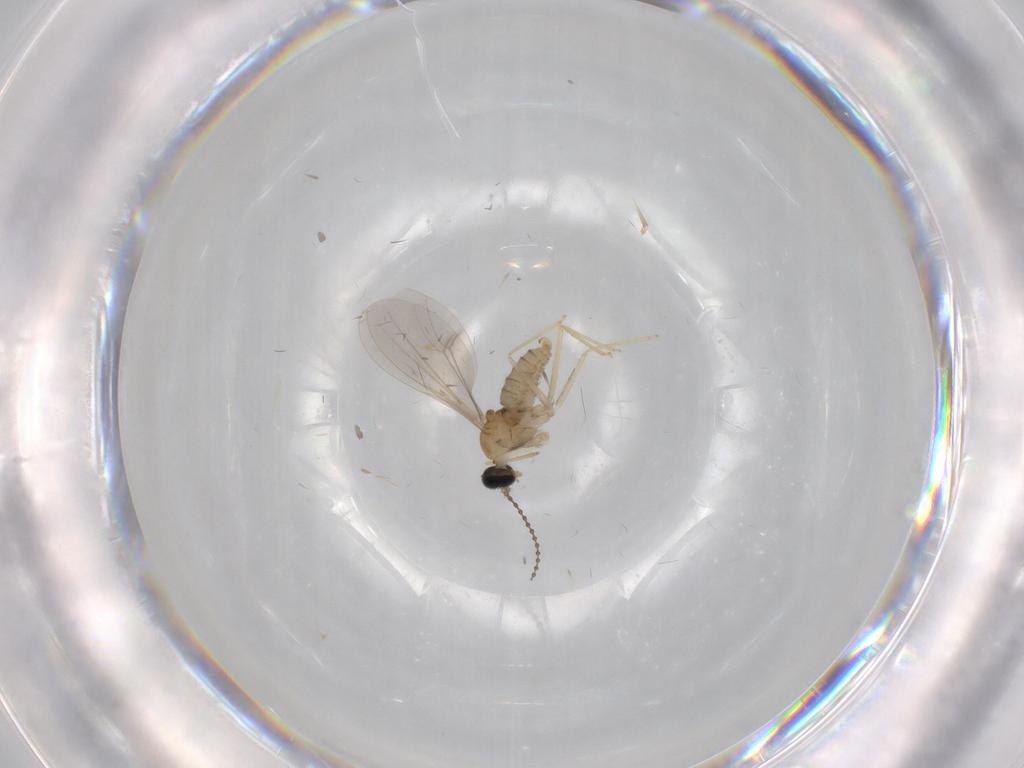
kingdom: Animalia
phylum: Arthropoda
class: Insecta
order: Diptera
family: Cecidomyiidae
